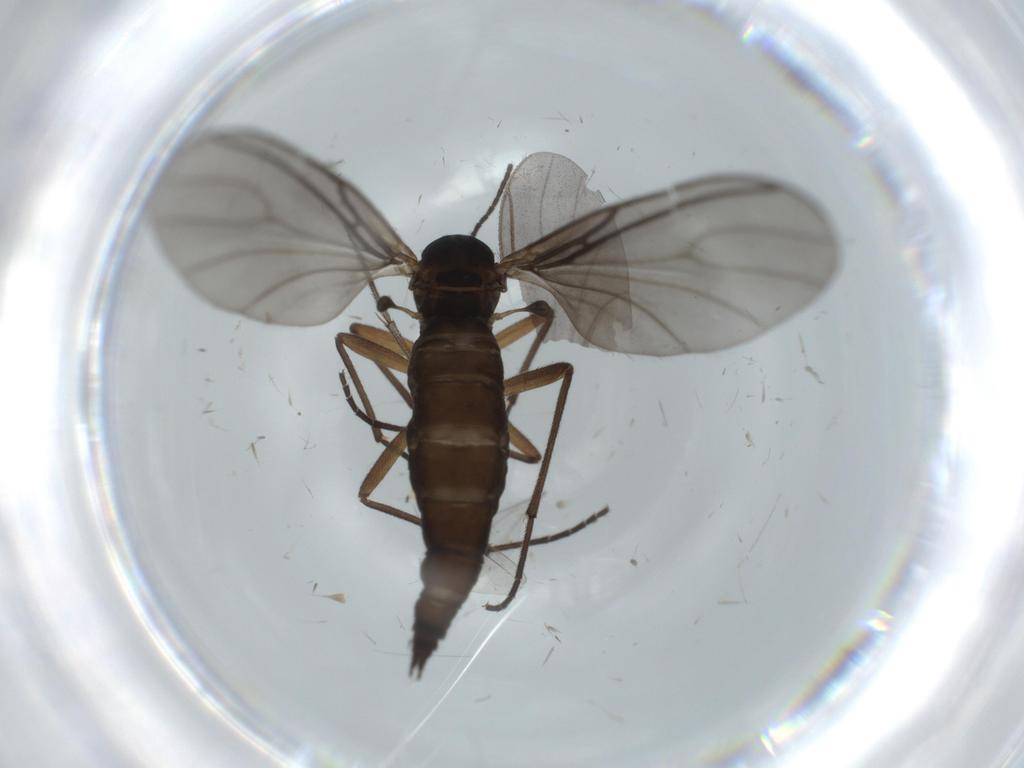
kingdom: Animalia
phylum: Arthropoda
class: Insecta
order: Diptera
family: Sciaridae
